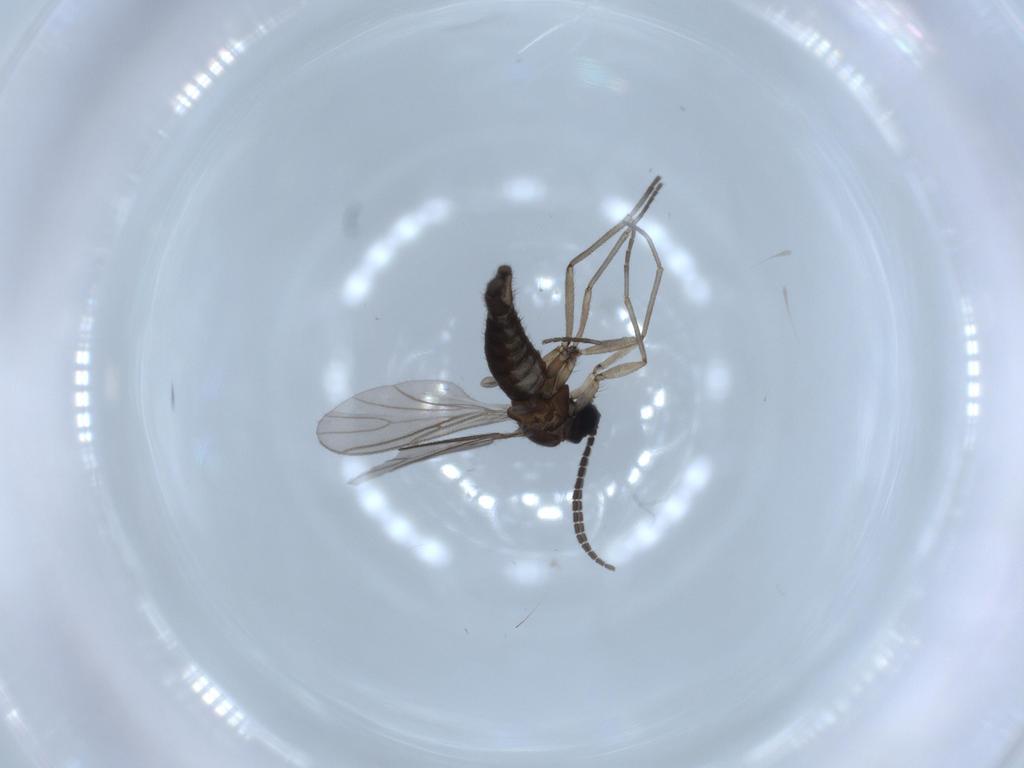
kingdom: Animalia
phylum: Arthropoda
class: Insecta
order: Diptera
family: Sciaridae
